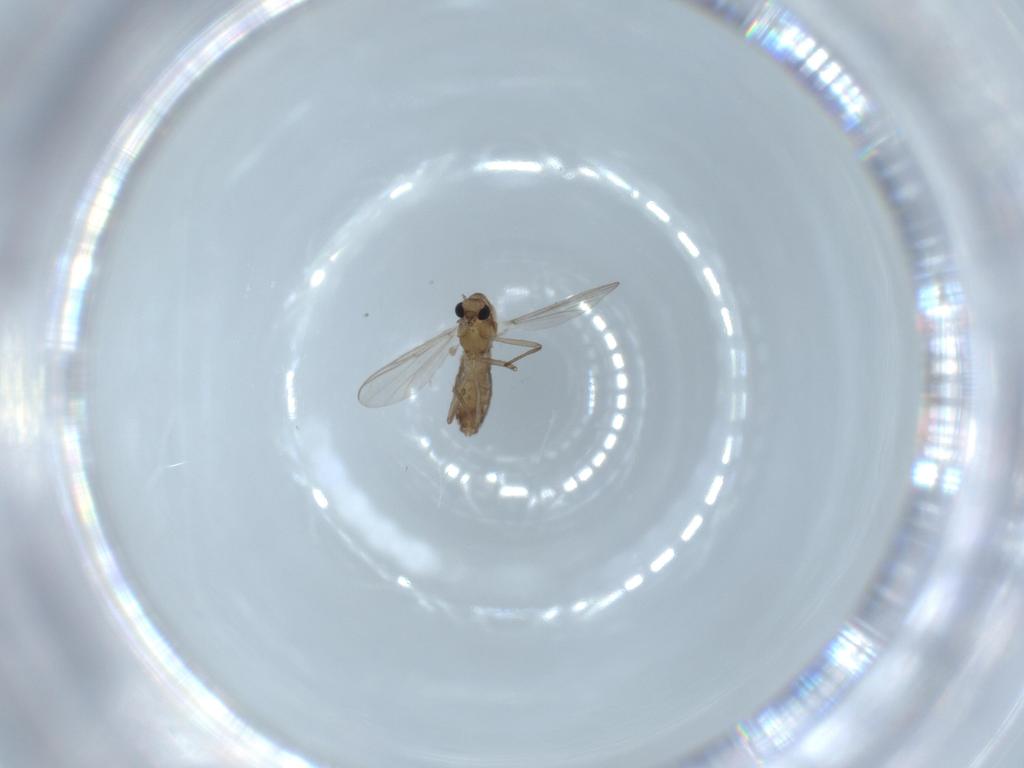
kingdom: Animalia
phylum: Arthropoda
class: Insecta
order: Diptera
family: Chironomidae
